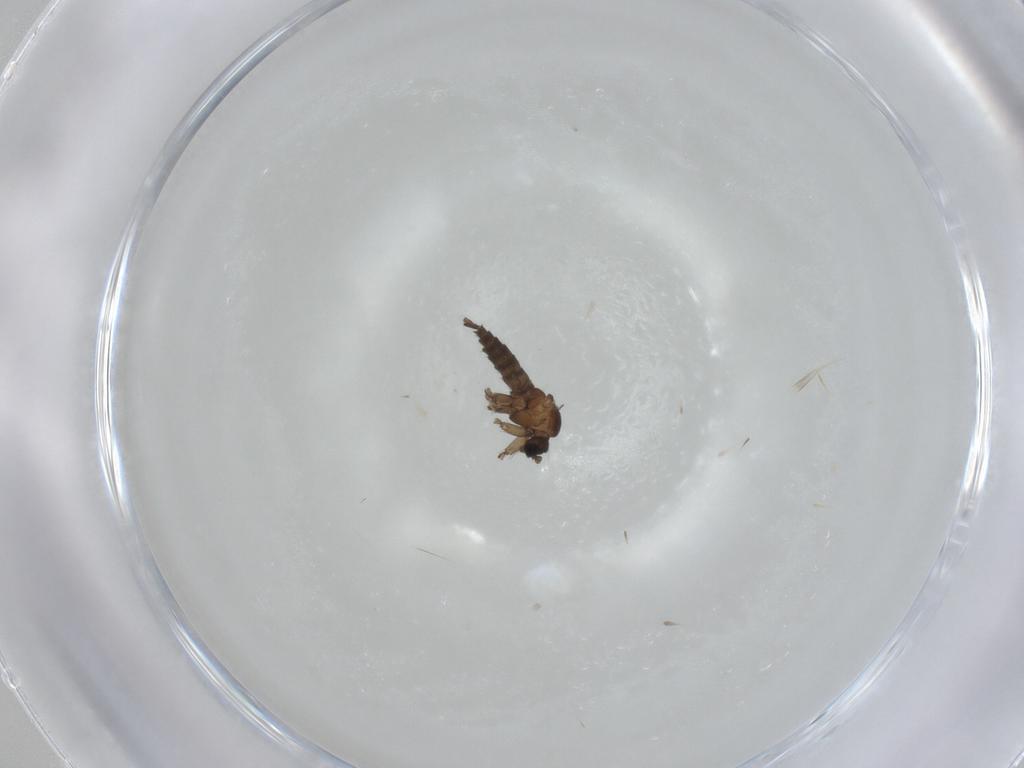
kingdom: Animalia
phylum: Arthropoda
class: Insecta
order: Diptera
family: Sciaridae
